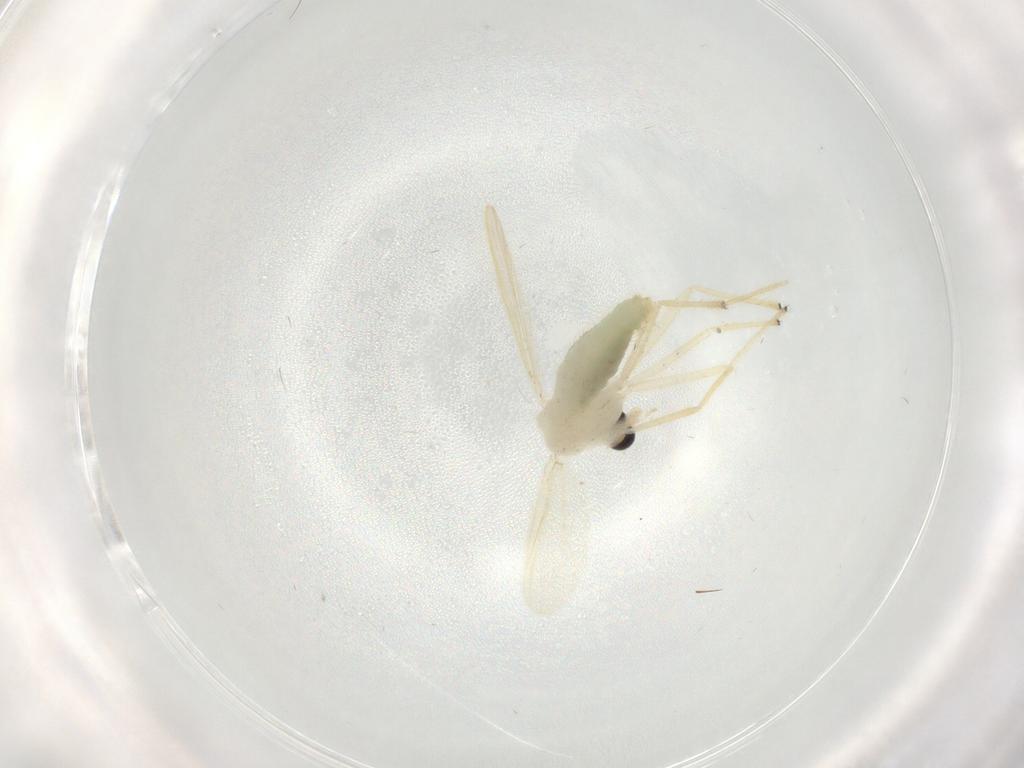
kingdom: Animalia
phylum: Arthropoda
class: Insecta
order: Diptera
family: Chironomidae
